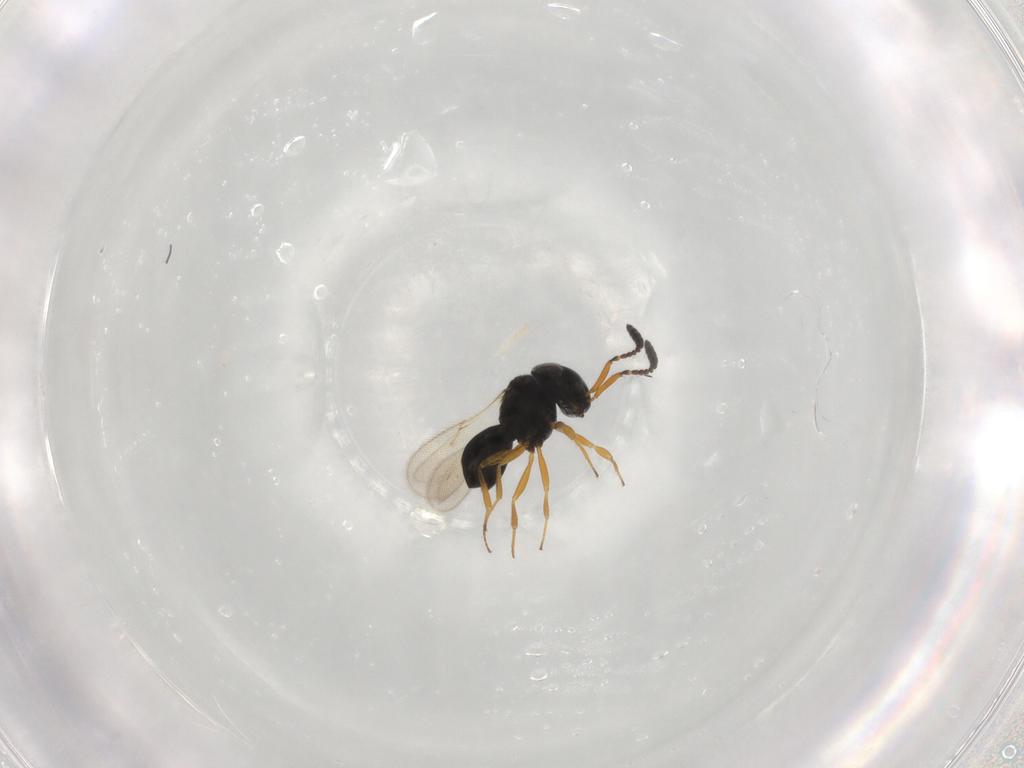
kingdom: Animalia
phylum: Arthropoda
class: Insecta
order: Hymenoptera
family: Scelionidae
